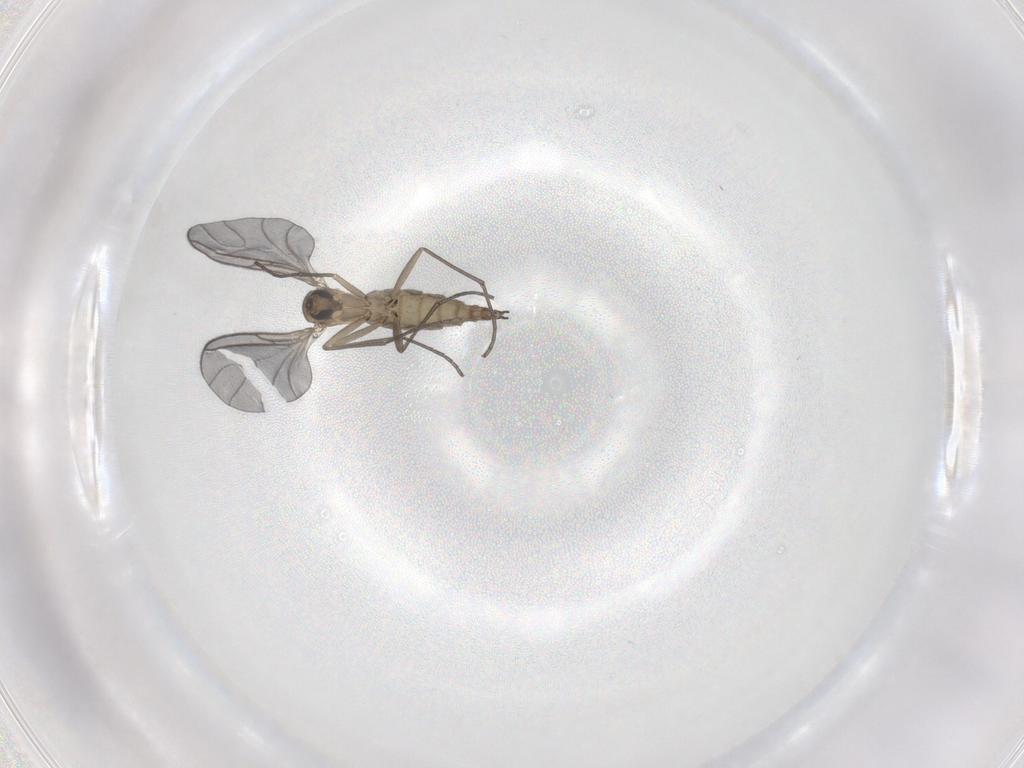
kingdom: Animalia
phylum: Arthropoda
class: Insecta
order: Diptera
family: Sciaridae
